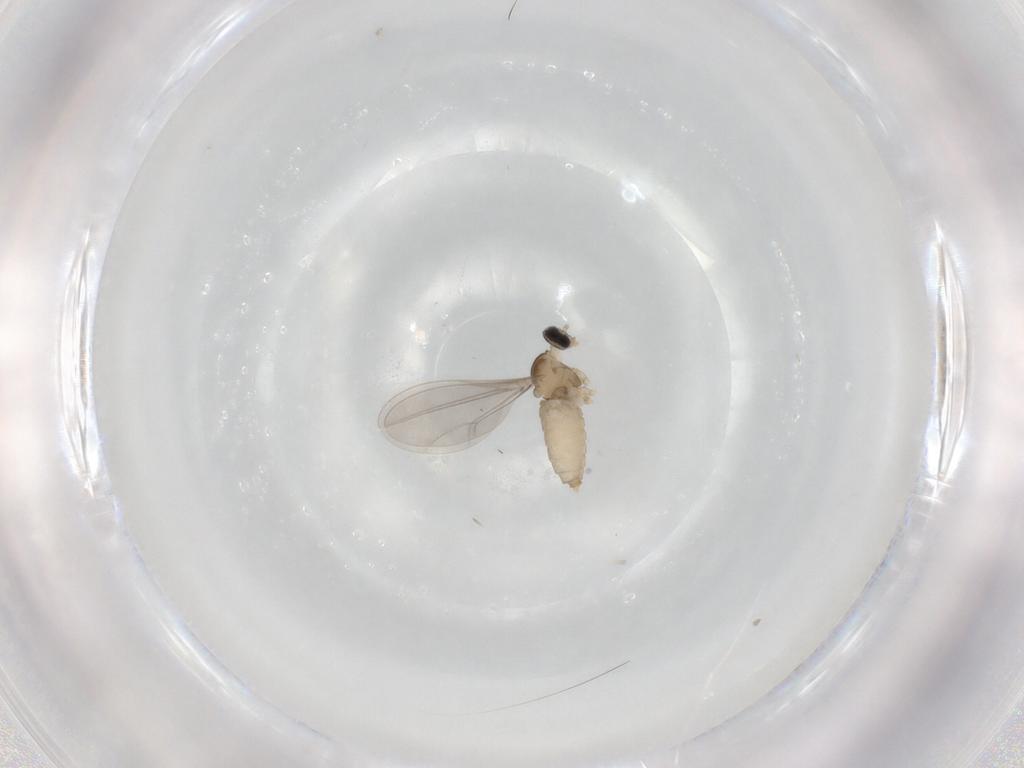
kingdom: Animalia
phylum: Arthropoda
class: Insecta
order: Diptera
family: Cecidomyiidae
